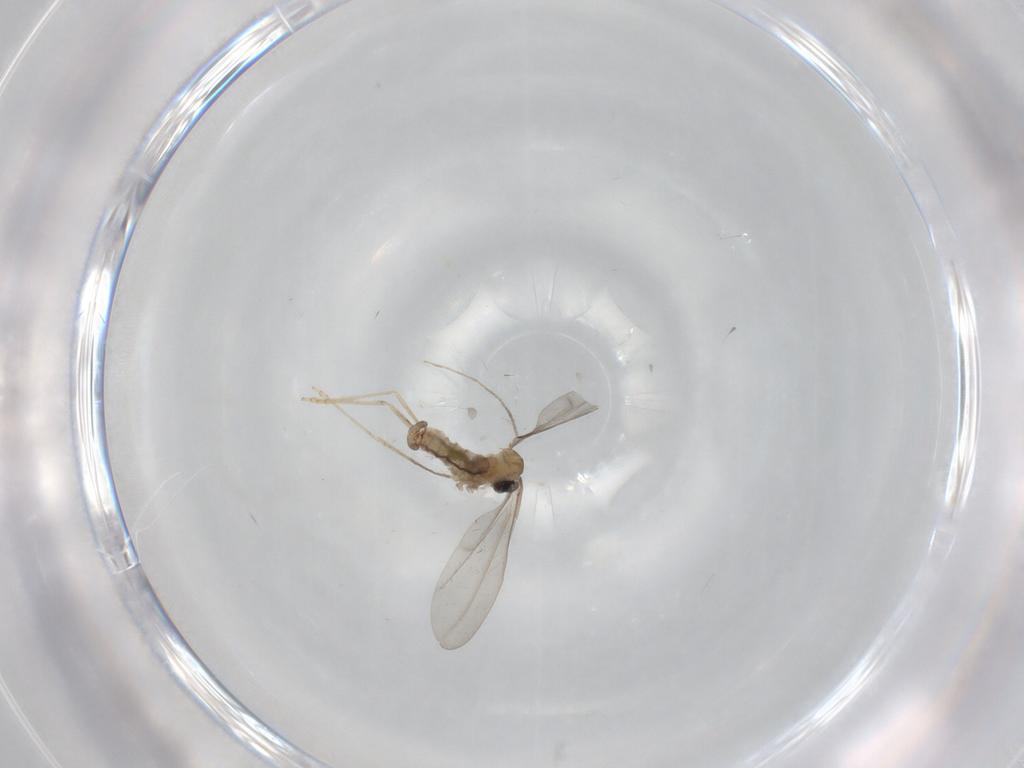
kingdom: Animalia
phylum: Arthropoda
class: Insecta
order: Diptera
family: Chironomidae
